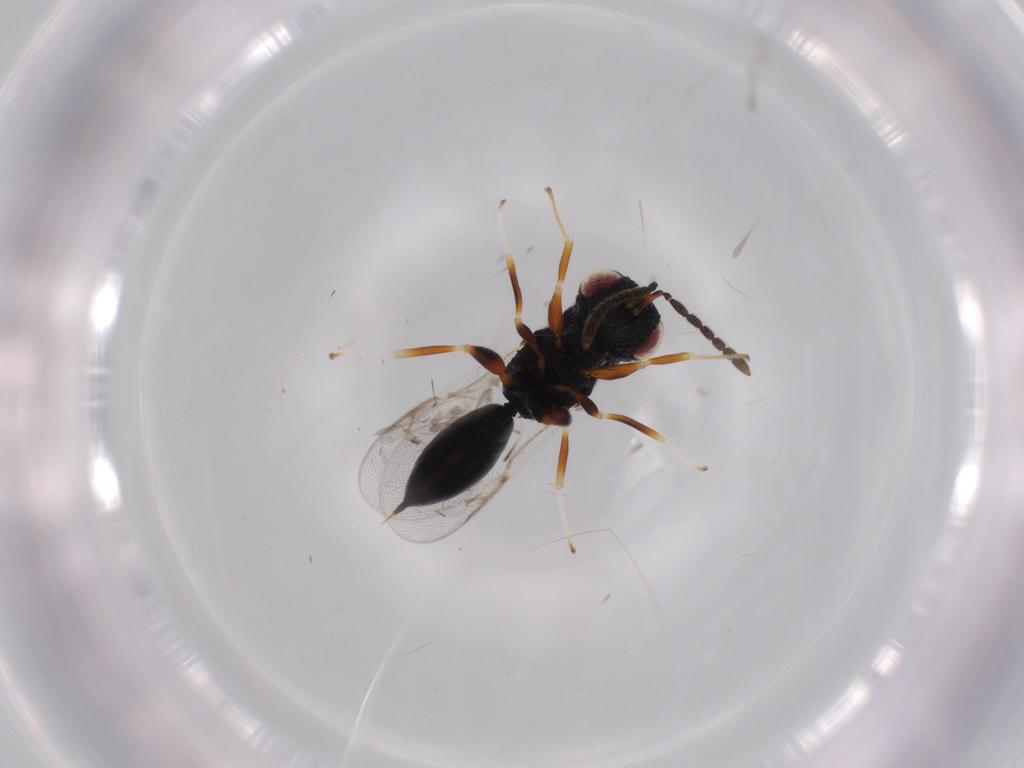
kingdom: Animalia
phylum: Arthropoda
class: Insecta
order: Hymenoptera
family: Eurytomidae
